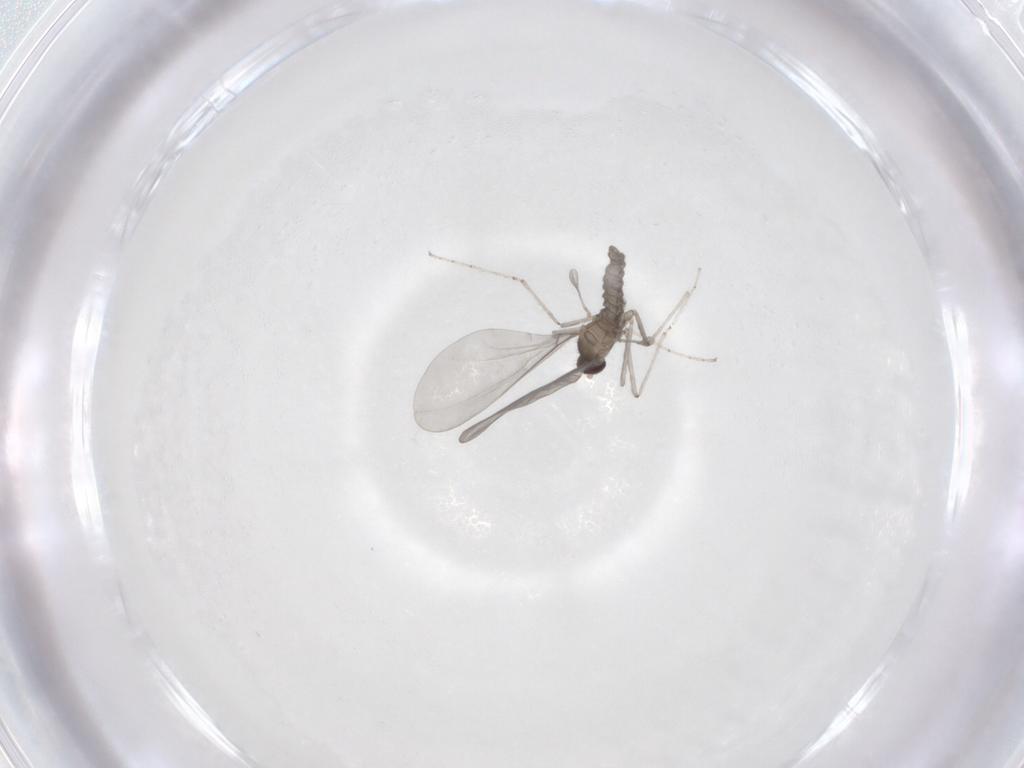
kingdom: Animalia
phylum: Arthropoda
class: Insecta
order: Diptera
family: Cecidomyiidae
